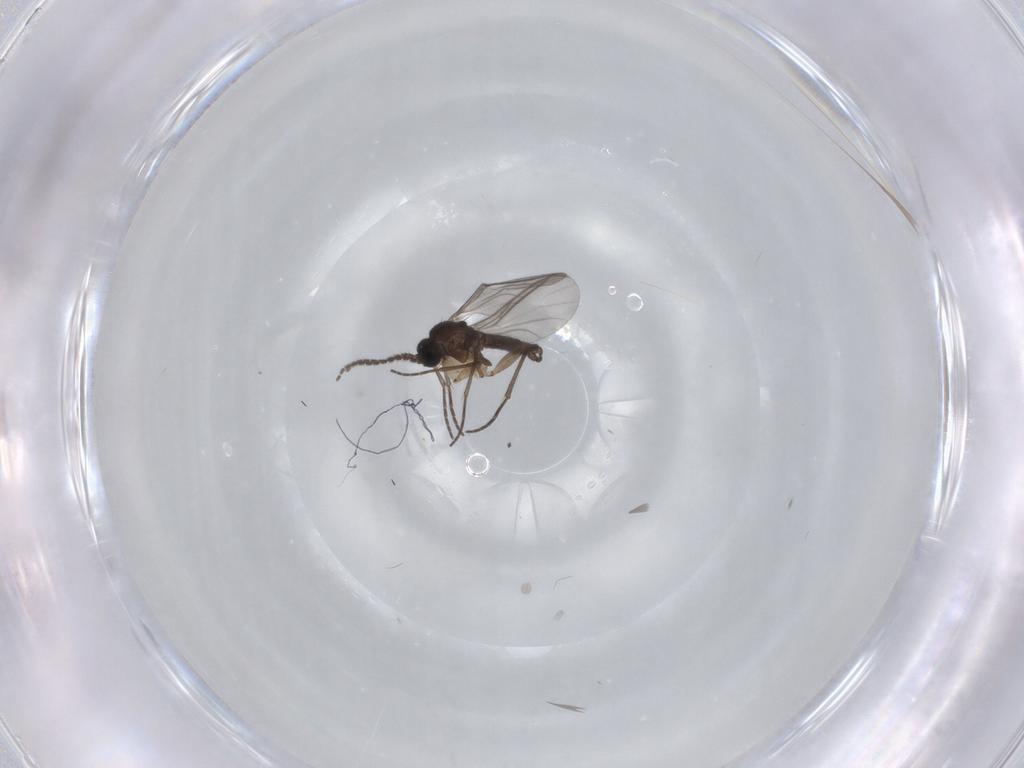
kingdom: Animalia
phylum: Arthropoda
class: Insecta
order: Diptera
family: Sciaridae
